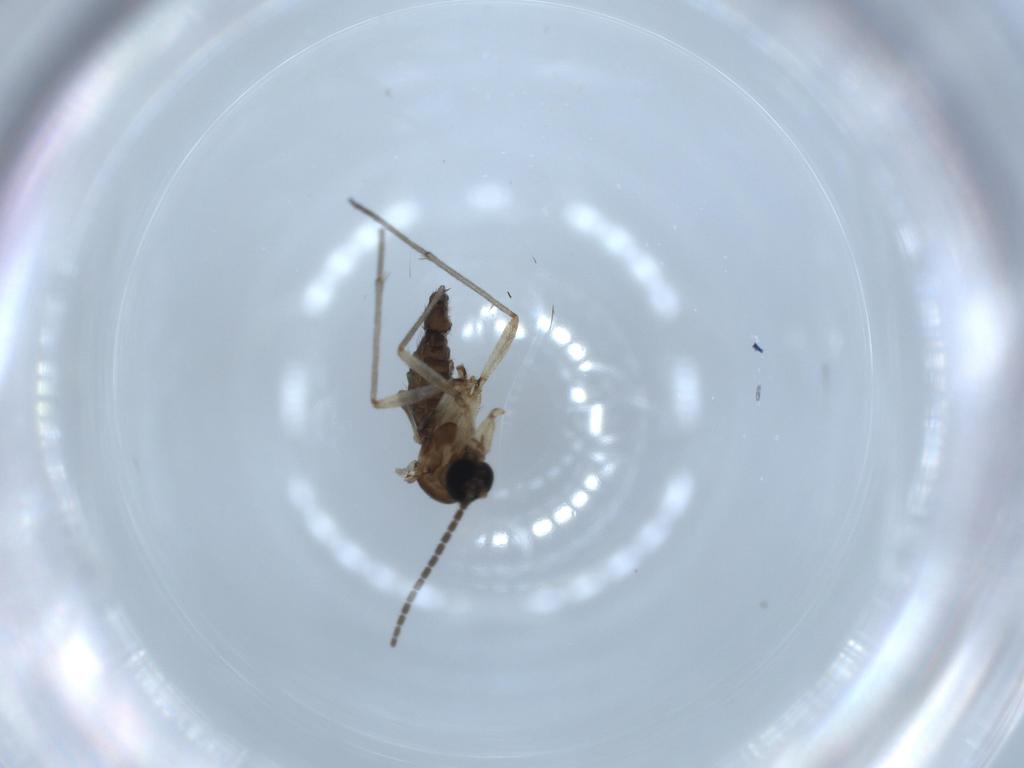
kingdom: Animalia
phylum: Arthropoda
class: Insecta
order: Diptera
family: Sciaridae
